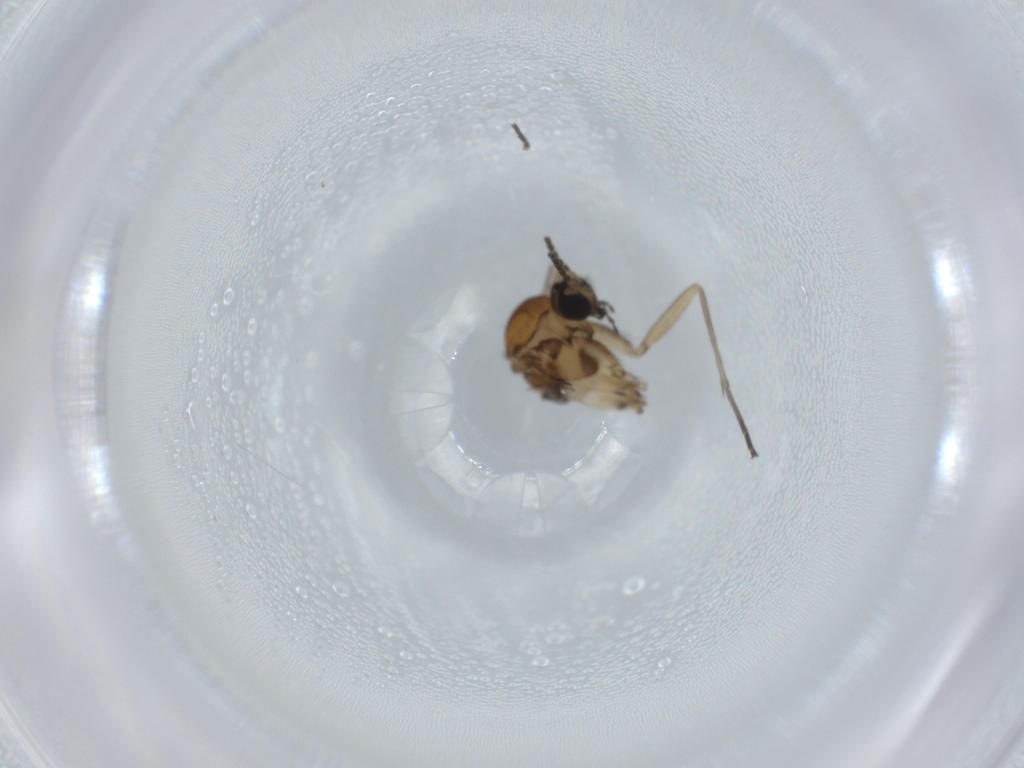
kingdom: Animalia
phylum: Arthropoda
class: Insecta
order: Diptera
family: Sciaridae
